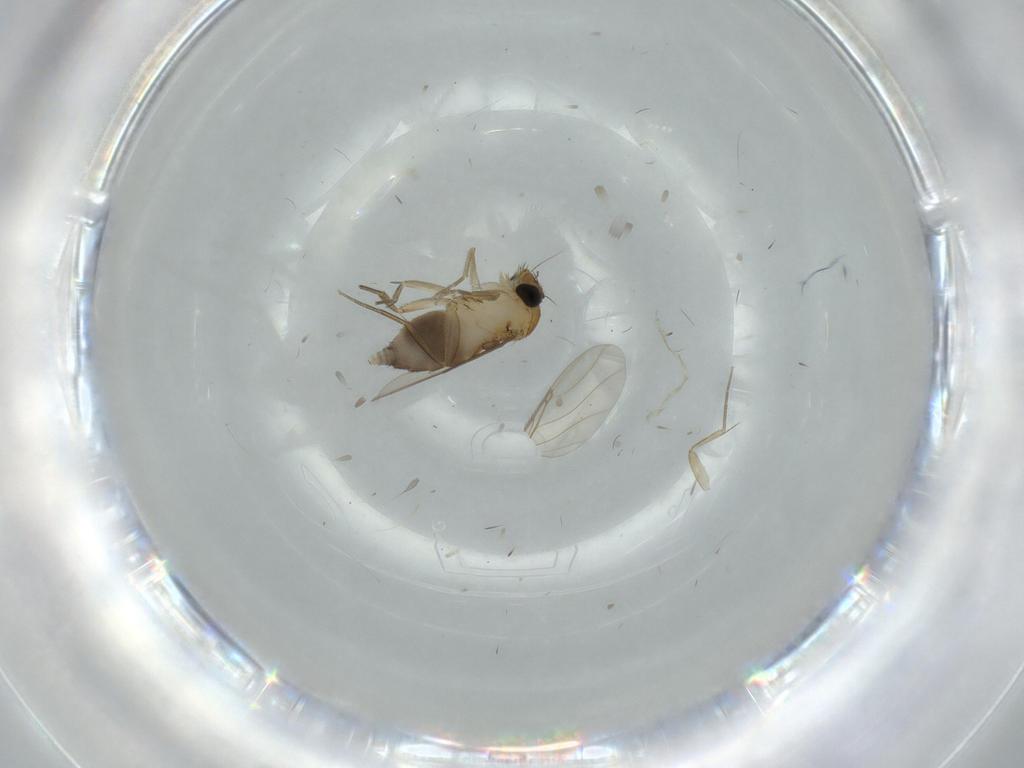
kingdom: Animalia
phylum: Arthropoda
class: Insecta
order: Diptera
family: Phoridae
